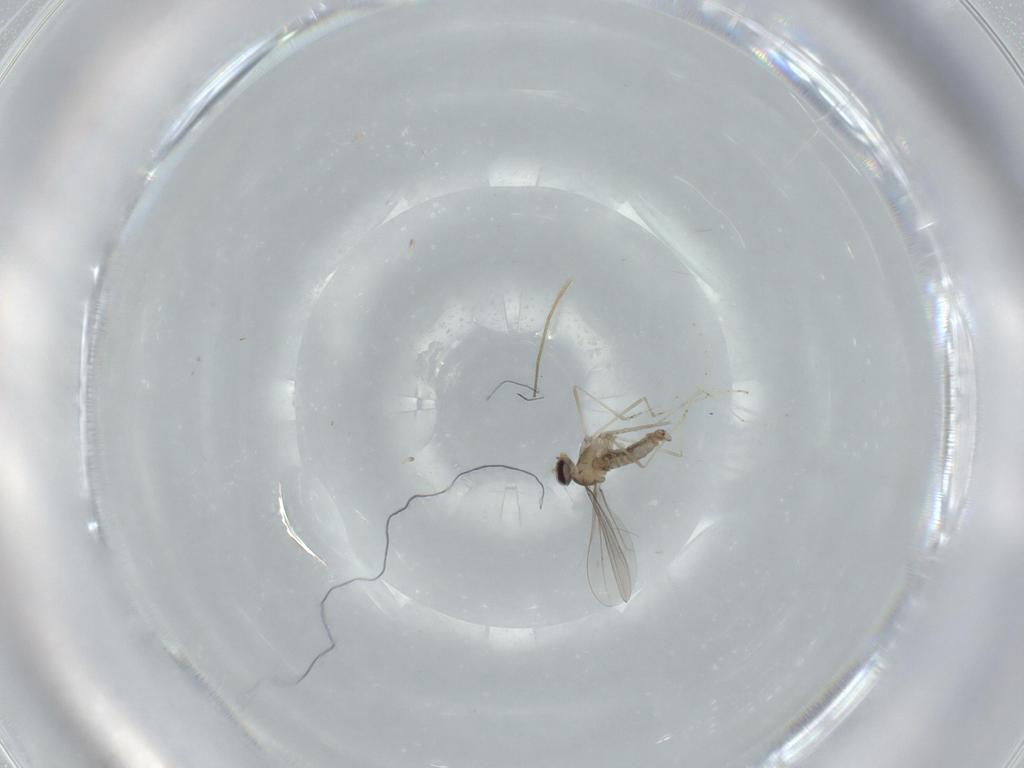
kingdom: Animalia
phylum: Arthropoda
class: Insecta
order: Diptera
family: Cecidomyiidae
